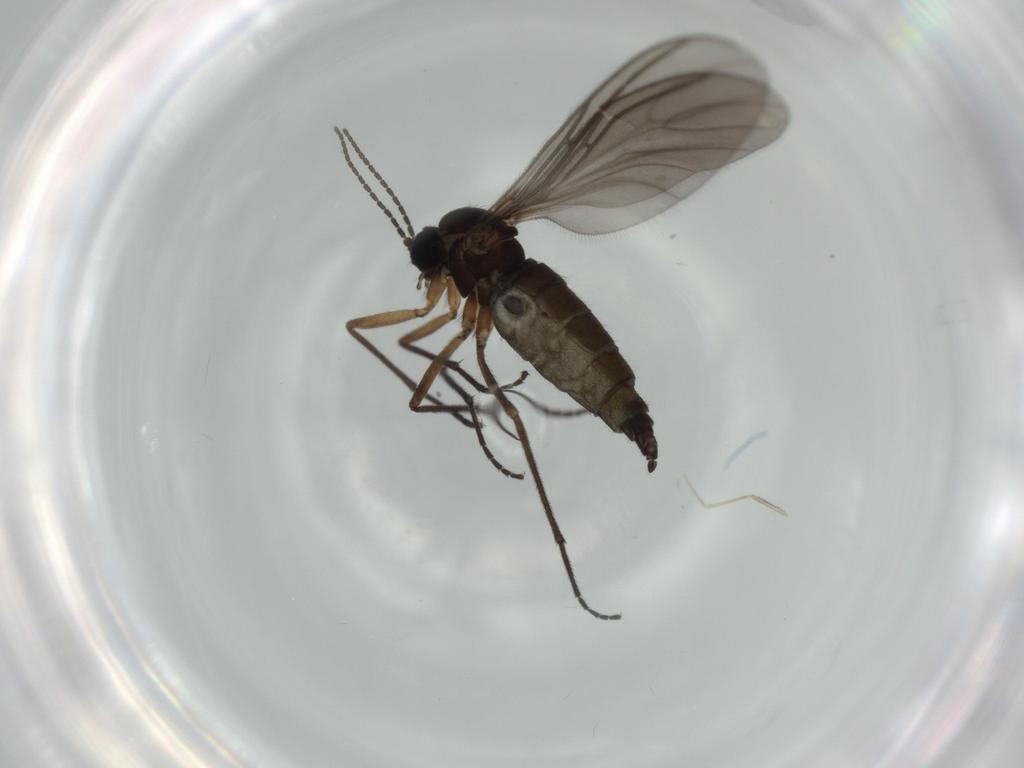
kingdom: Animalia
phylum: Arthropoda
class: Insecta
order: Diptera
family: Sciaridae
